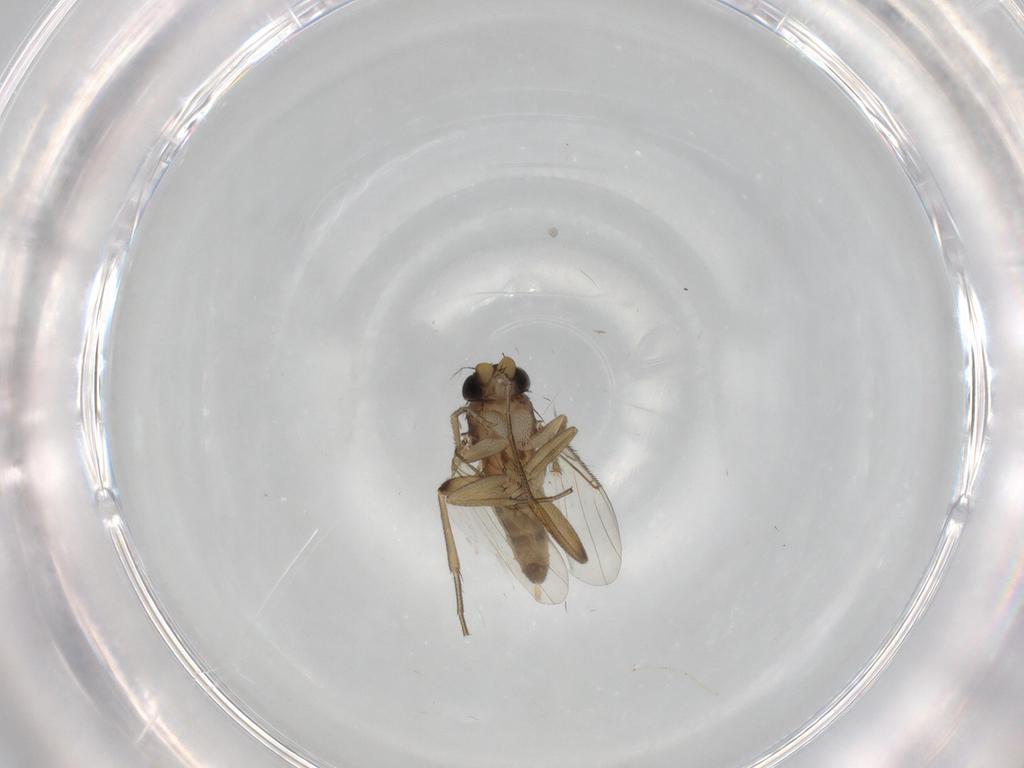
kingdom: Animalia
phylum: Arthropoda
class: Insecta
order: Diptera
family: Phoridae
